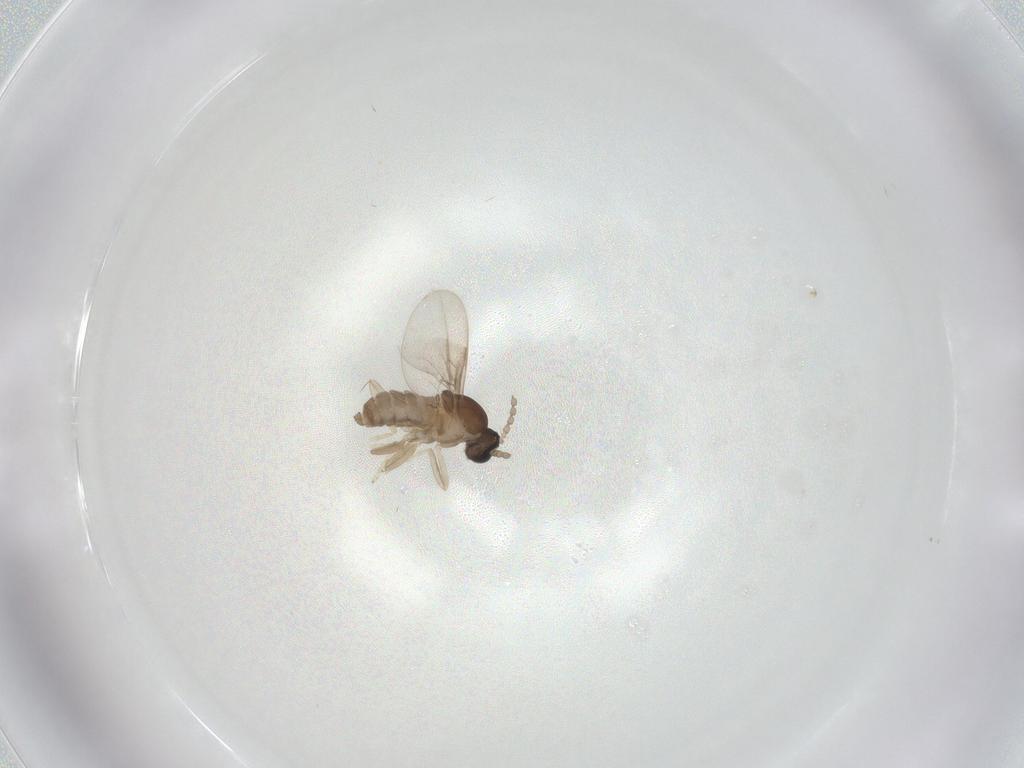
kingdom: Animalia
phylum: Arthropoda
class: Insecta
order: Diptera
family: Cecidomyiidae
